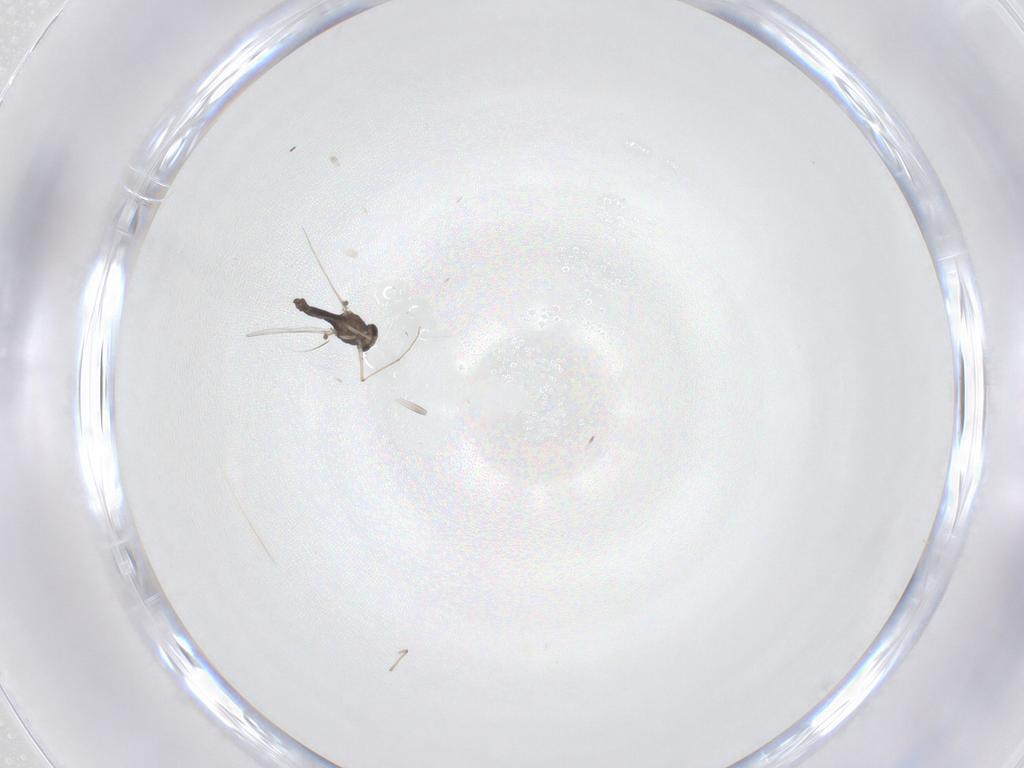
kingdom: Animalia
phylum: Arthropoda
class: Insecta
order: Diptera
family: Chironomidae
